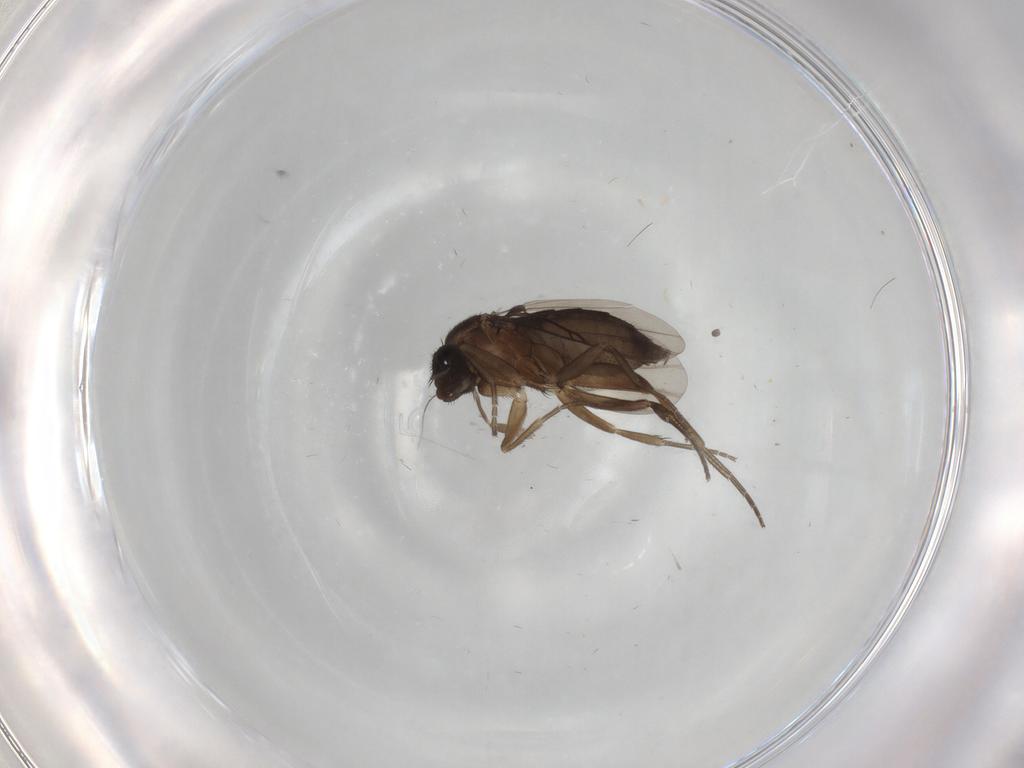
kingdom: Animalia
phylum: Arthropoda
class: Insecta
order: Diptera
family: Phoridae
